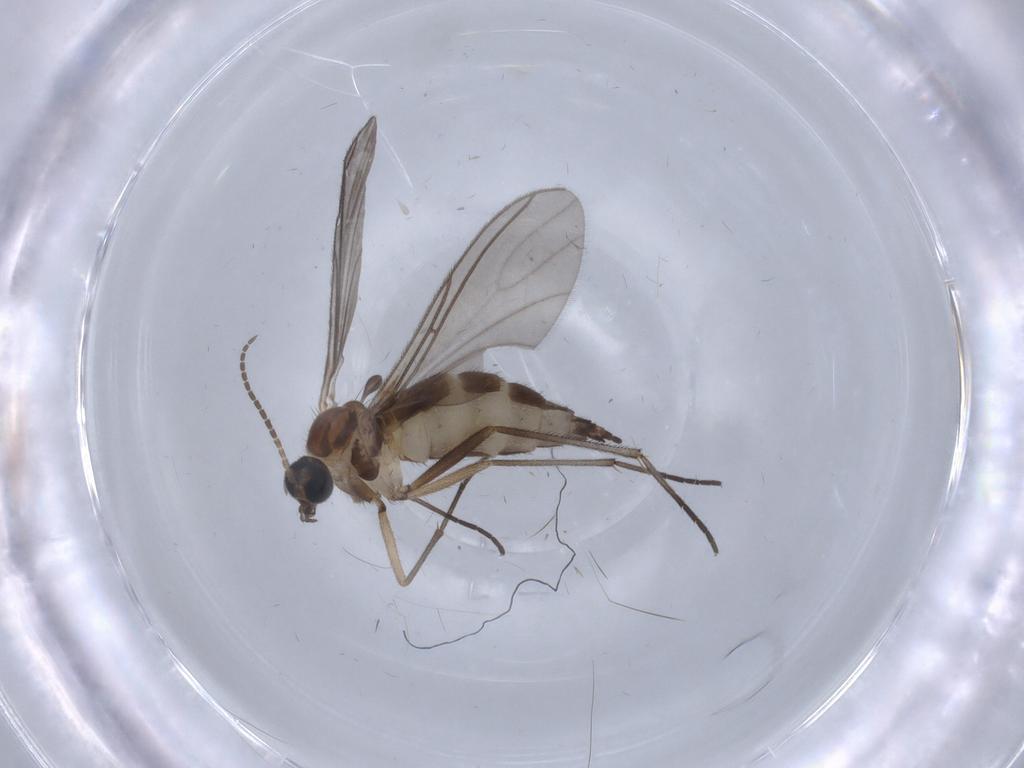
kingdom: Animalia
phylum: Arthropoda
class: Insecta
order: Diptera
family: Sciaridae
